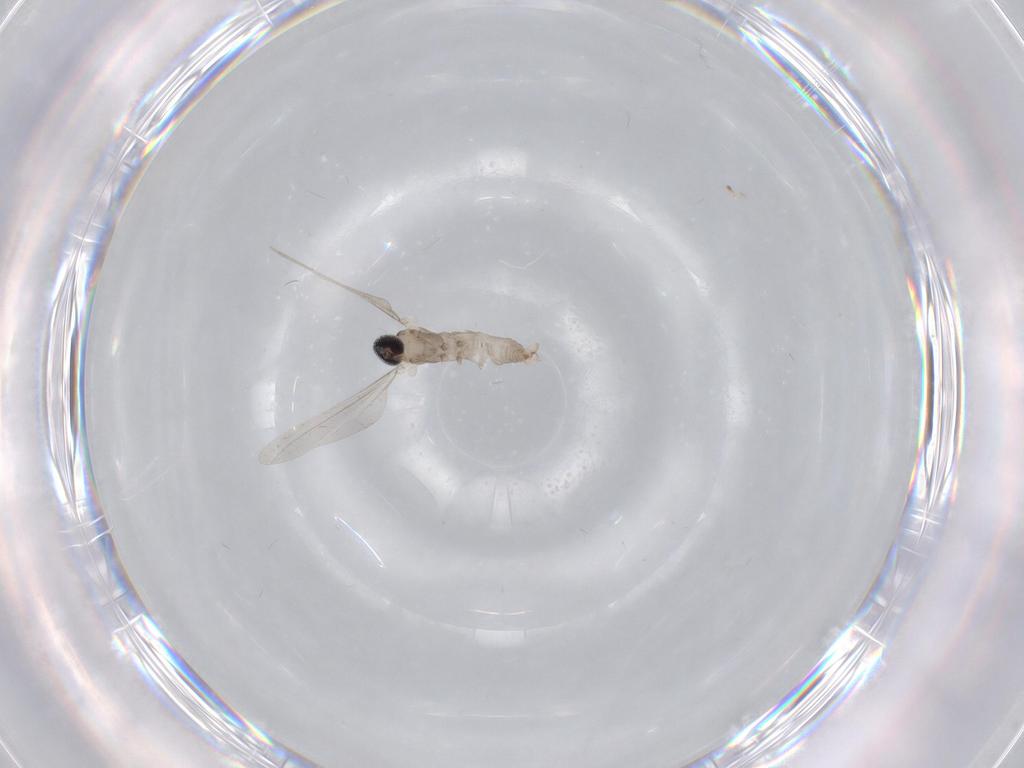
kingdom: Animalia
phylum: Arthropoda
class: Insecta
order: Diptera
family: Cecidomyiidae
